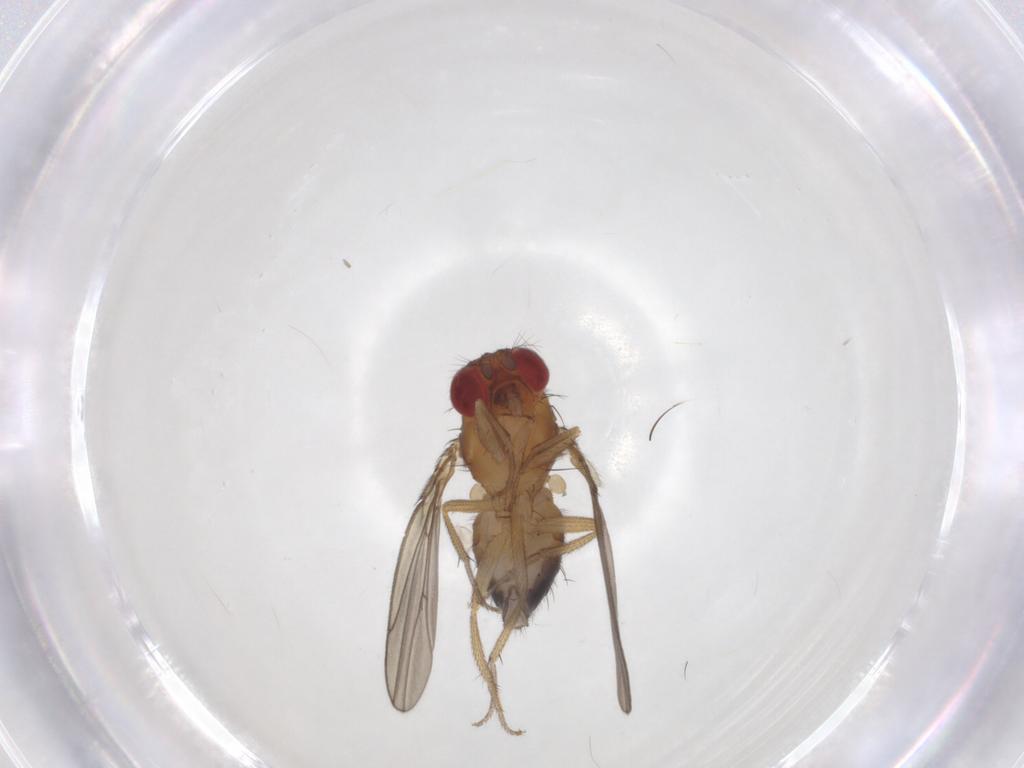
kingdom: Animalia
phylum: Arthropoda
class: Insecta
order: Diptera
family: Drosophilidae
